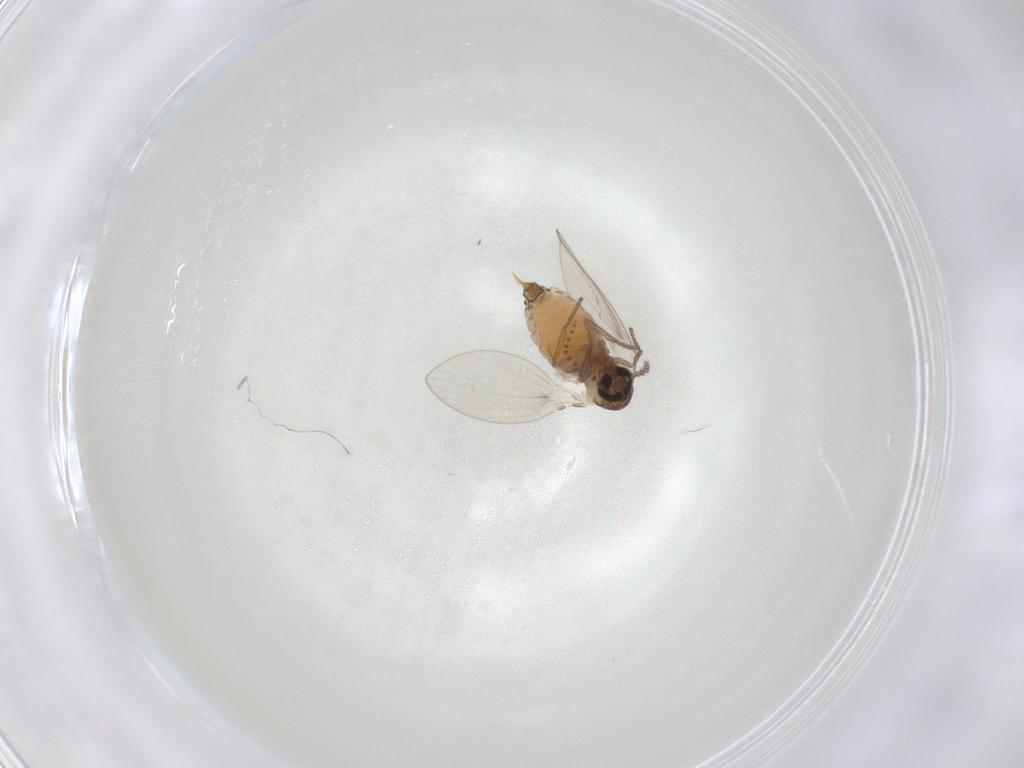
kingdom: Animalia
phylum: Arthropoda
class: Insecta
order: Diptera
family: Psychodidae
